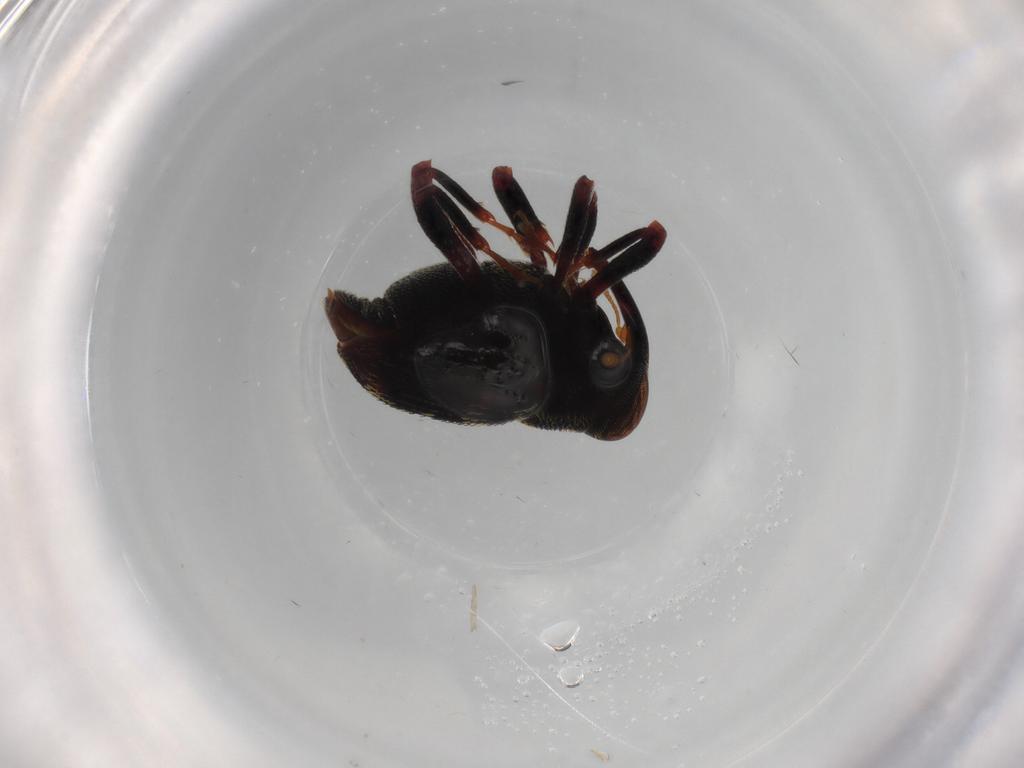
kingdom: Animalia
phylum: Arthropoda
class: Insecta
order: Coleoptera
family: Curculionidae
